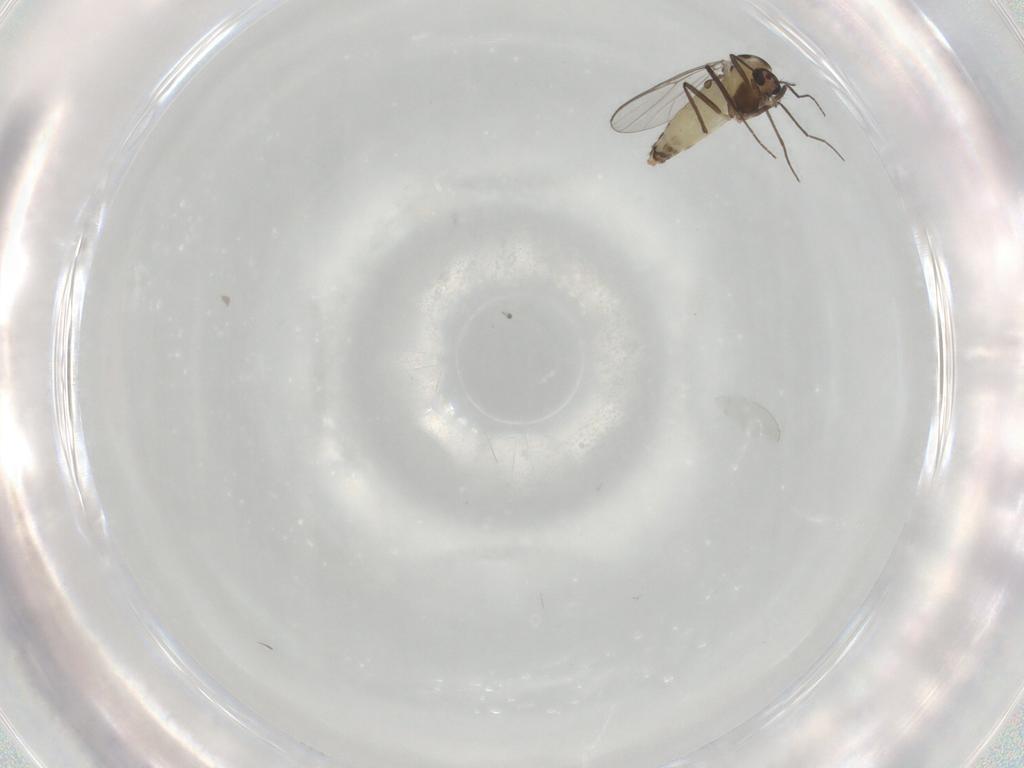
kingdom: Animalia
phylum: Arthropoda
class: Insecta
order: Diptera
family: Chironomidae
